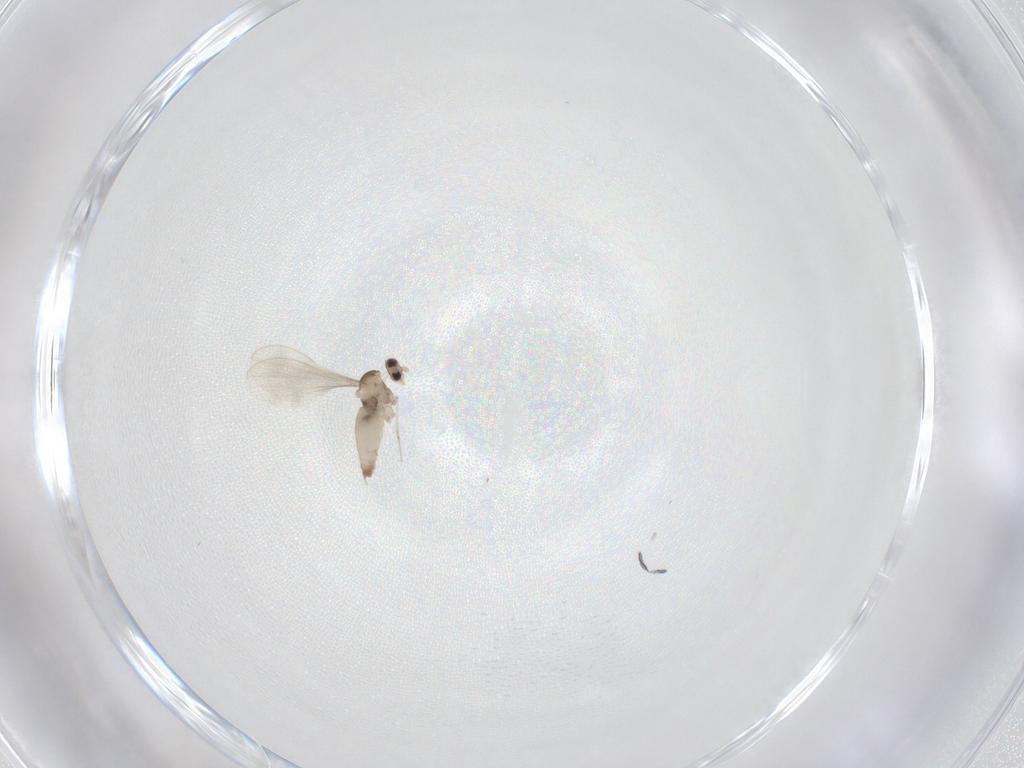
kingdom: Animalia
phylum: Arthropoda
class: Insecta
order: Diptera
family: Cecidomyiidae
